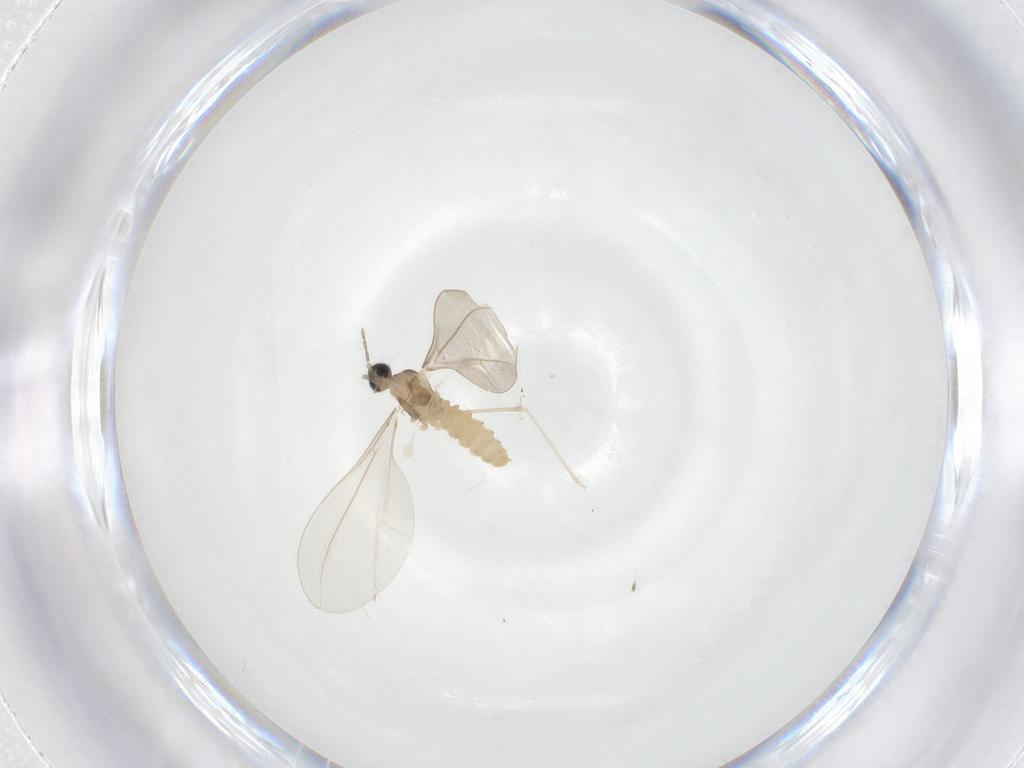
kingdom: Animalia
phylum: Arthropoda
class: Insecta
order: Diptera
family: Cecidomyiidae
